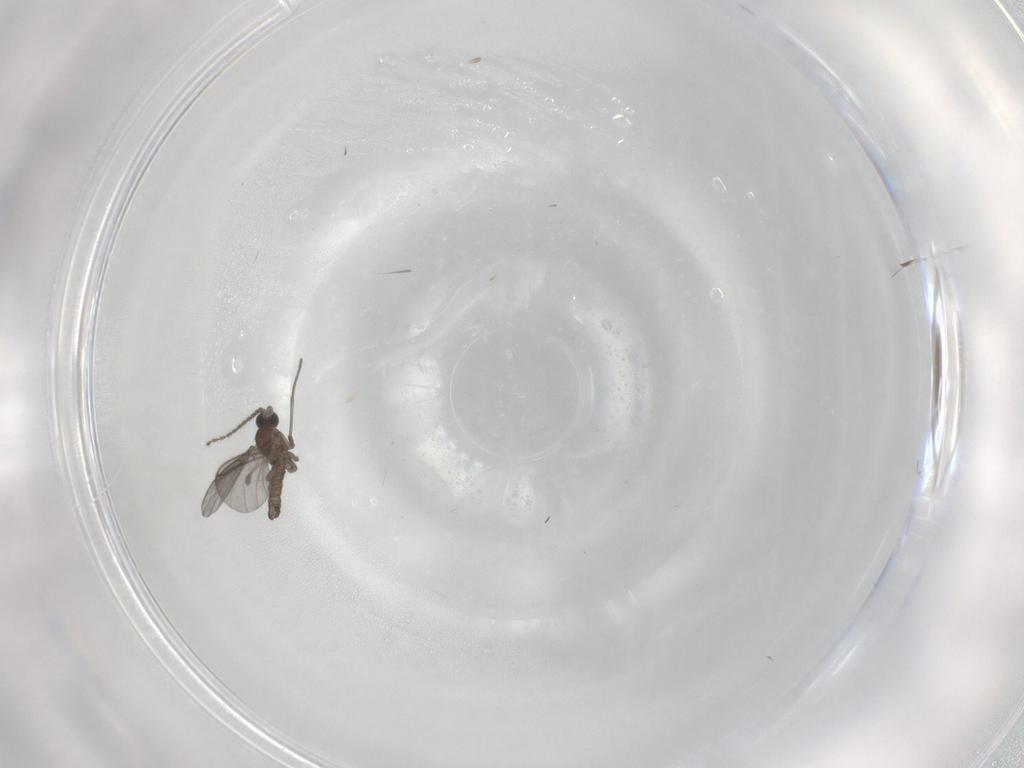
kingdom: Animalia
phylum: Arthropoda
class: Insecta
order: Diptera
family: Sciaridae
